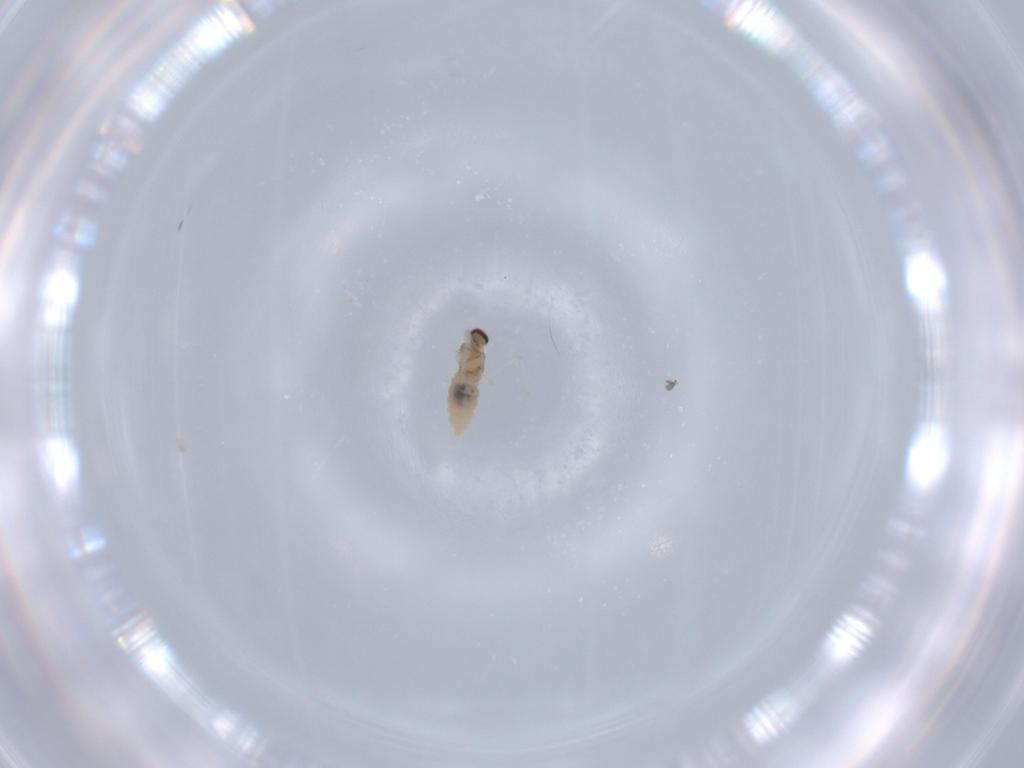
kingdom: Animalia
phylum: Arthropoda
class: Insecta
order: Diptera
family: Cecidomyiidae
